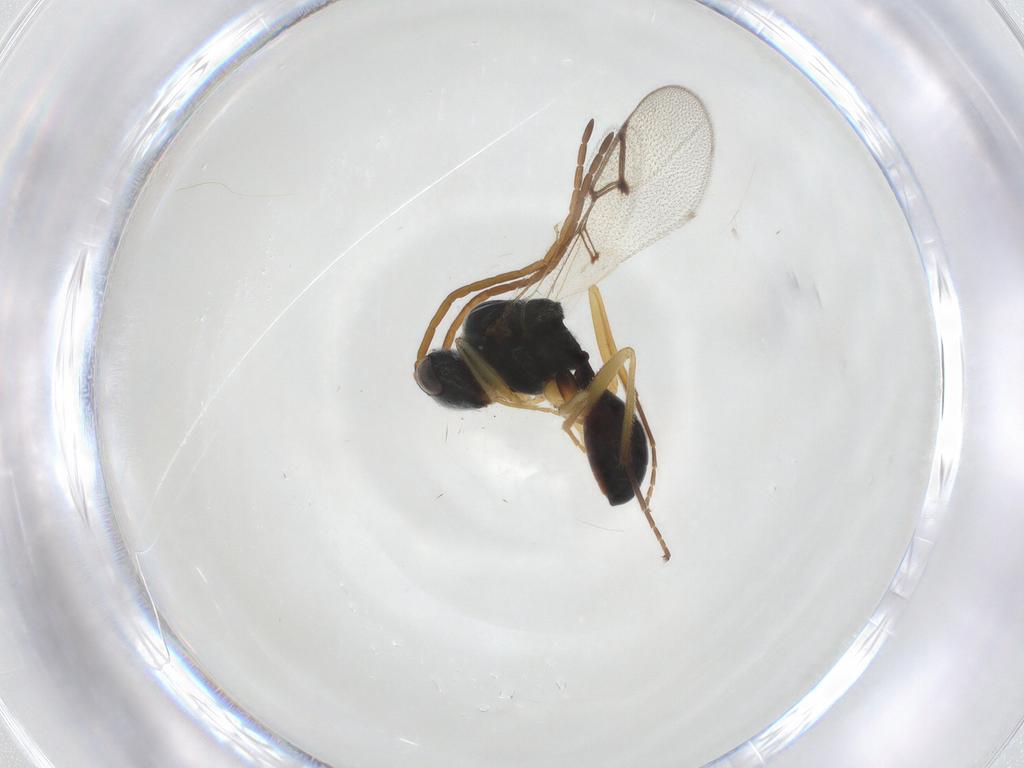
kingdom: Animalia
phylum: Arthropoda
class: Insecta
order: Hymenoptera
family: Figitidae
